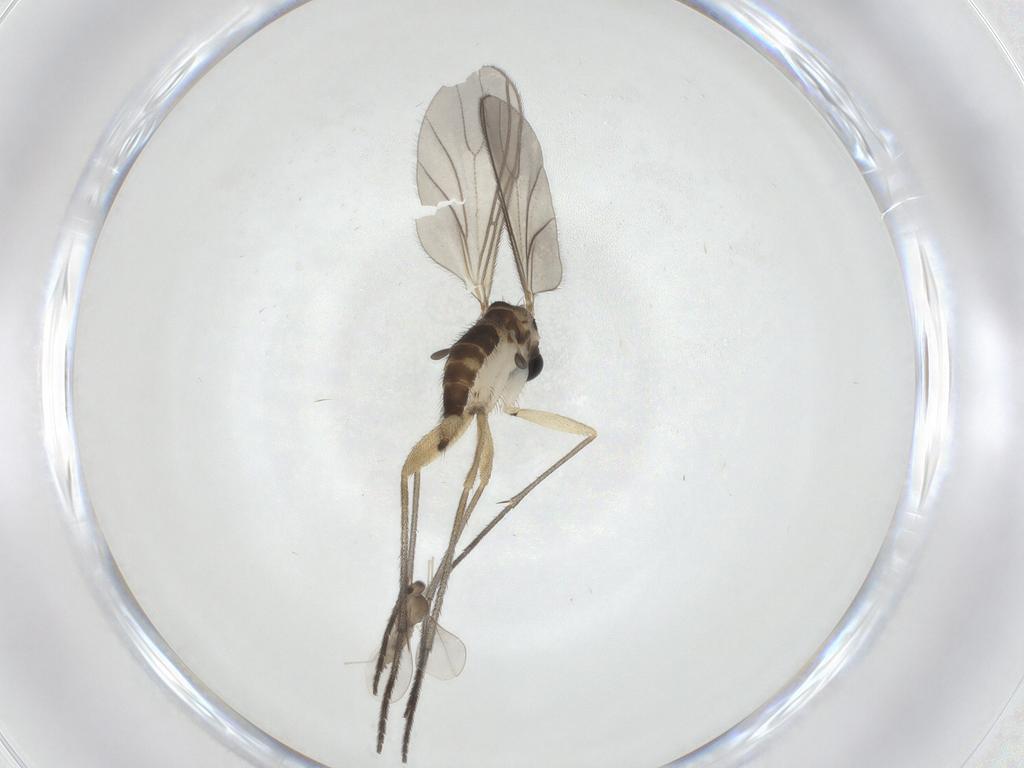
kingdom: Animalia
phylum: Arthropoda
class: Insecta
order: Diptera
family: Sciaridae
